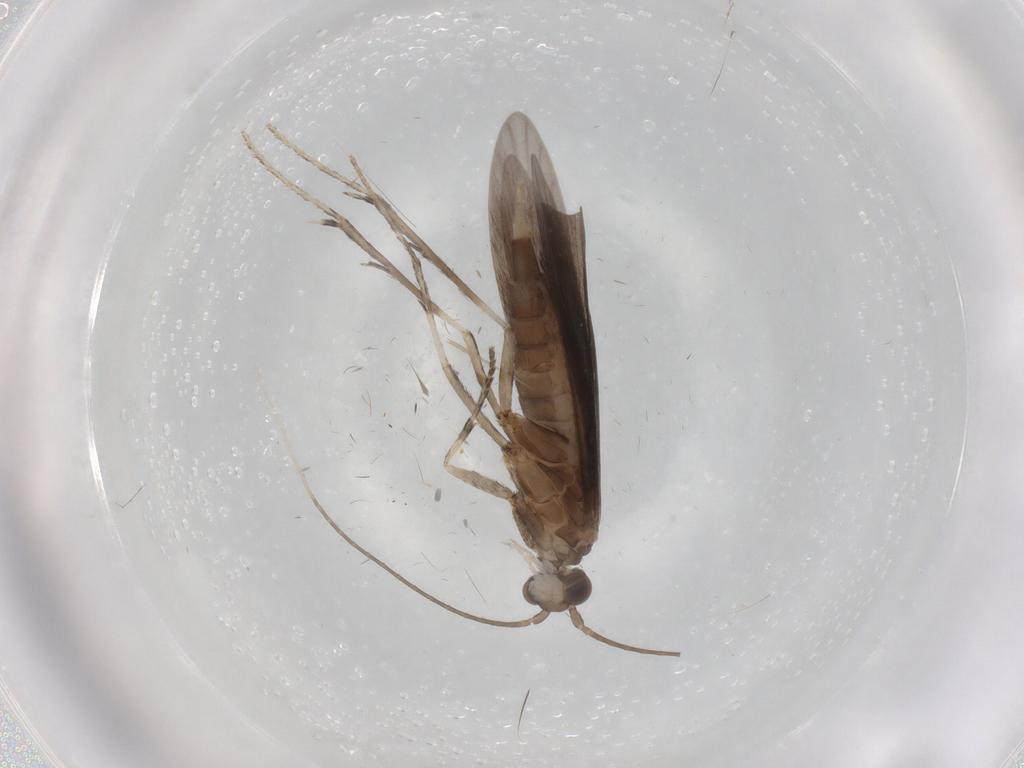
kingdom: Animalia
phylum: Arthropoda
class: Insecta
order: Trichoptera
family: Xiphocentronidae
